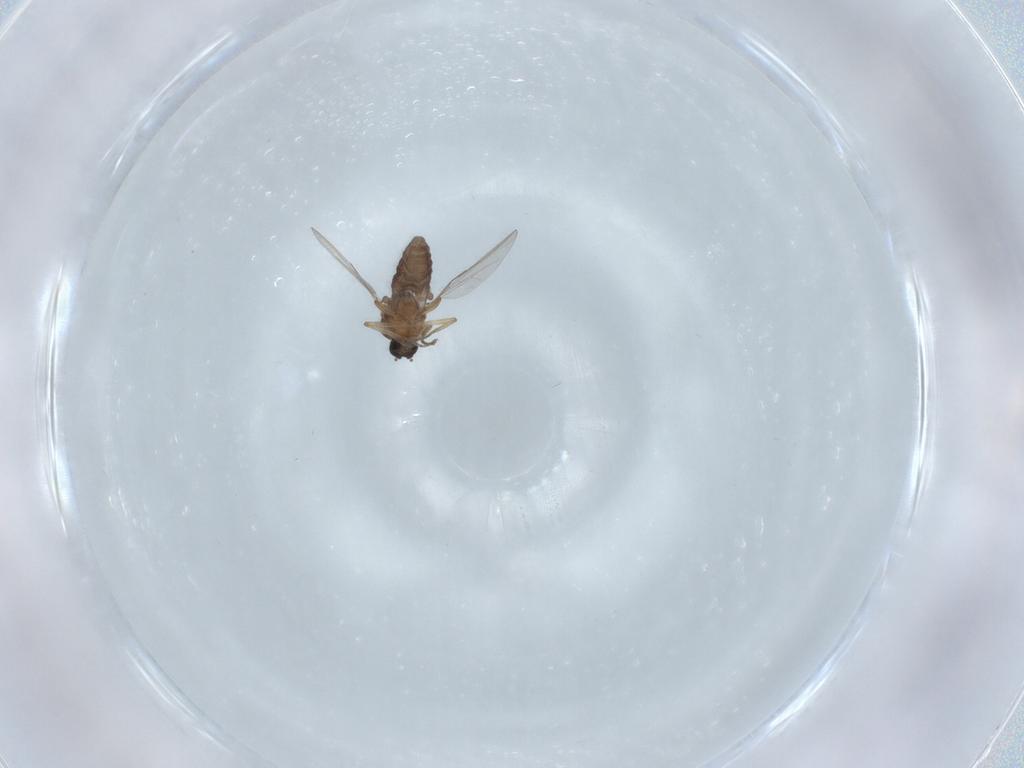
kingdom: Animalia
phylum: Arthropoda
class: Insecta
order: Diptera
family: Ceratopogonidae
